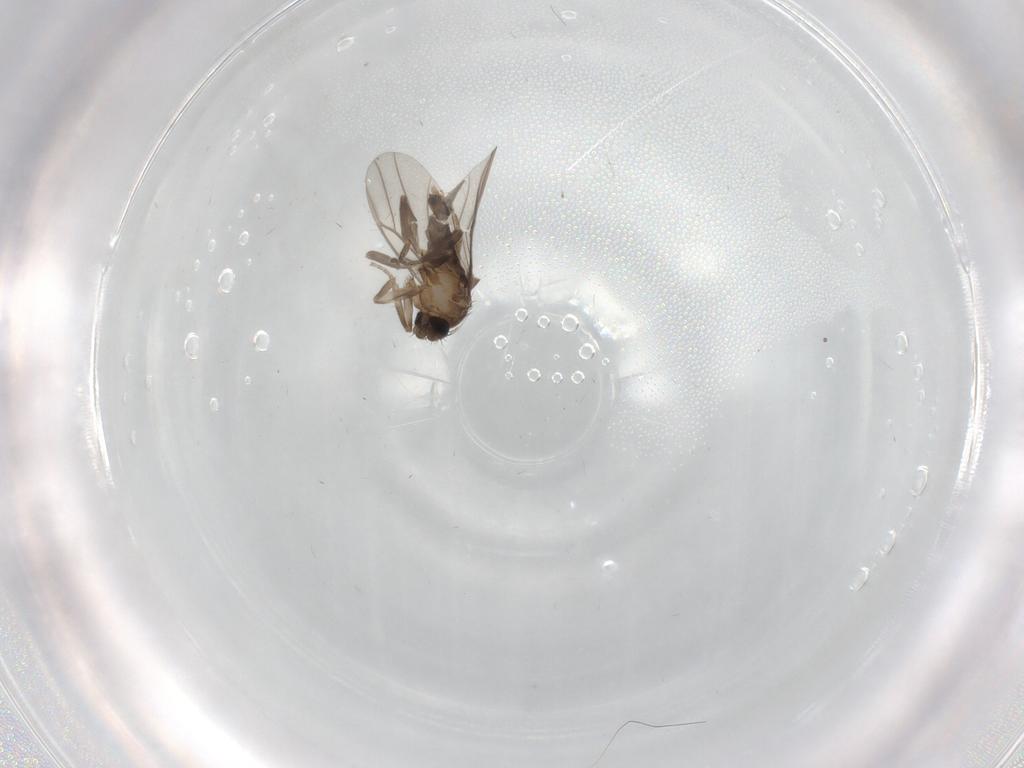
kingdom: Animalia
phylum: Arthropoda
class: Insecta
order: Diptera
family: Phoridae
